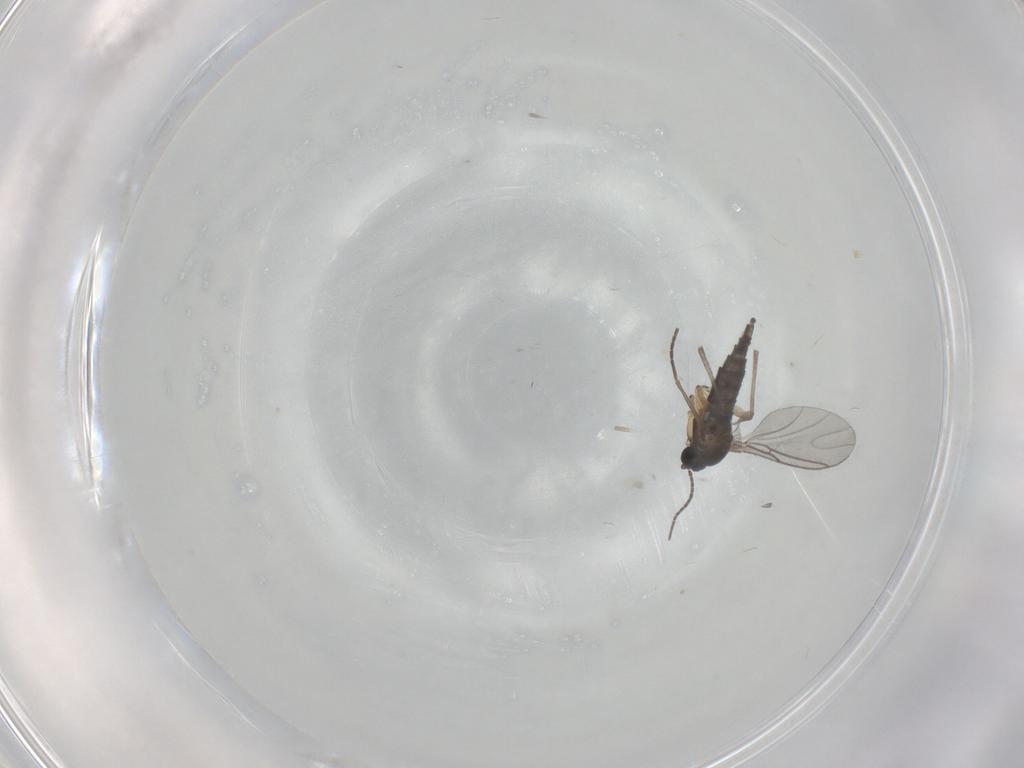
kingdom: Animalia
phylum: Arthropoda
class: Insecta
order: Diptera
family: Sciaridae
